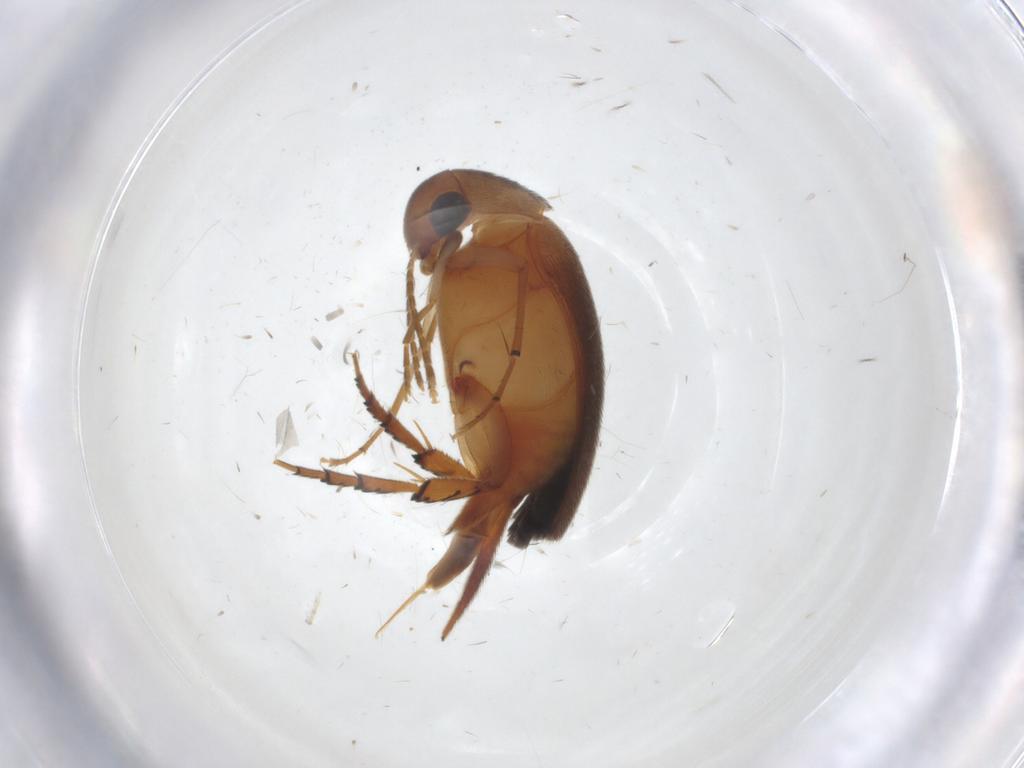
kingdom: Animalia
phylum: Arthropoda
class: Insecta
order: Coleoptera
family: Mordellidae
